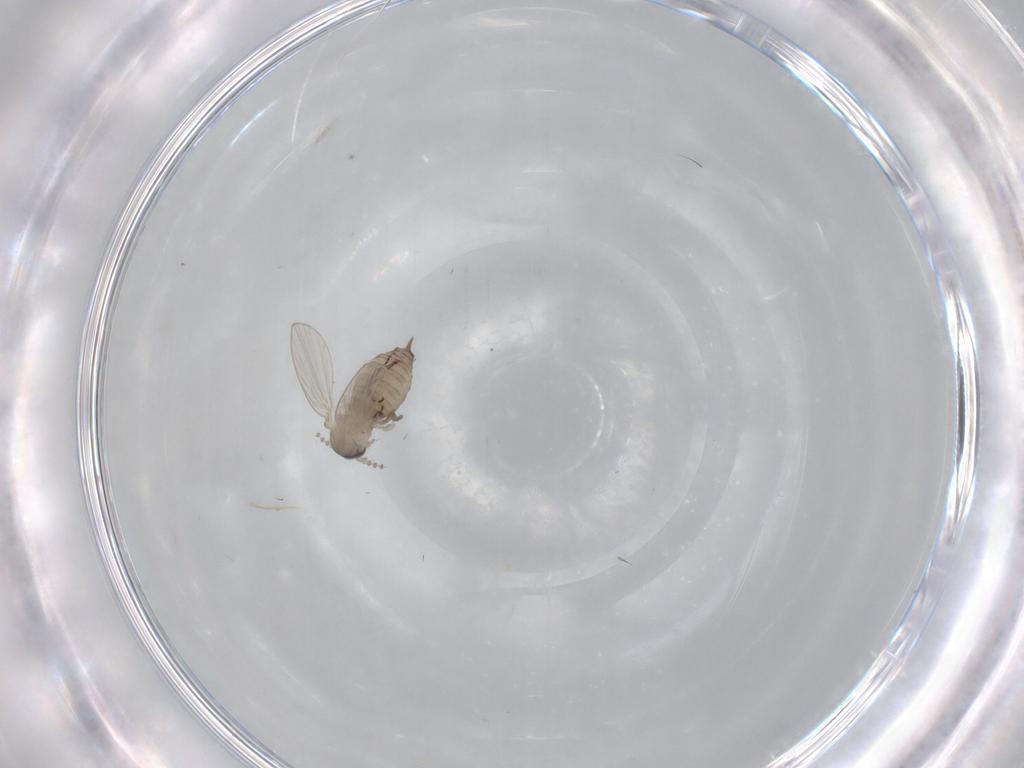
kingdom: Animalia
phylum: Arthropoda
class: Insecta
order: Diptera
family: Psychodidae
